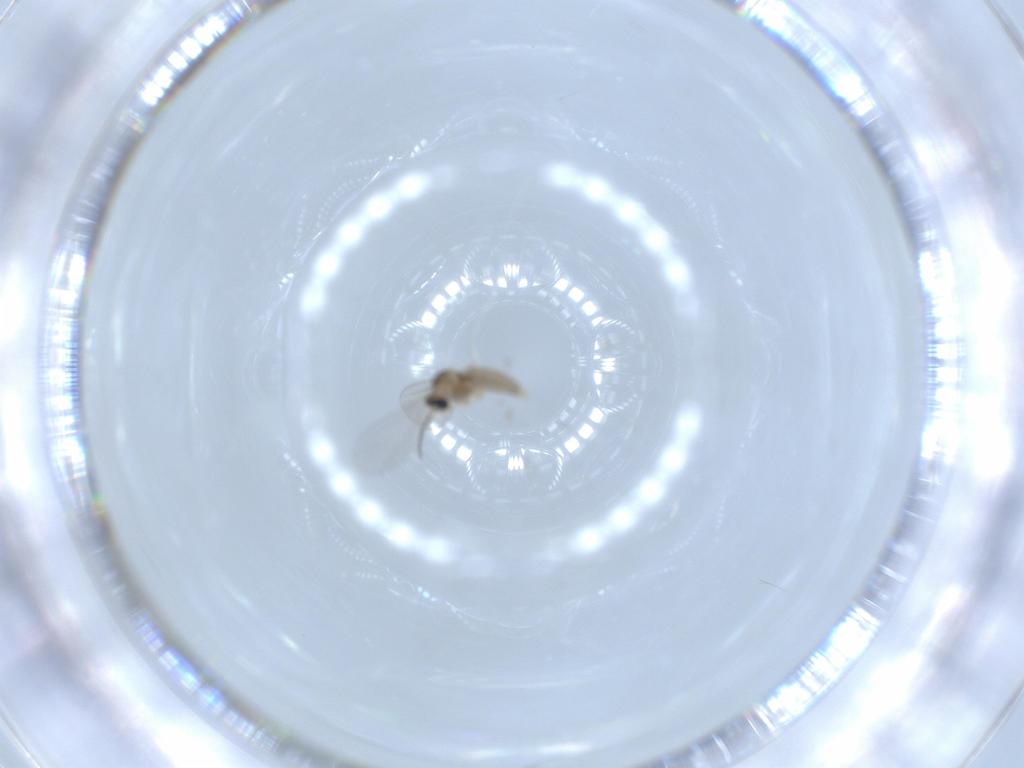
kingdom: Animalia
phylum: Arthropoda
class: Insecta
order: Diptera
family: Cecidomyiidae
